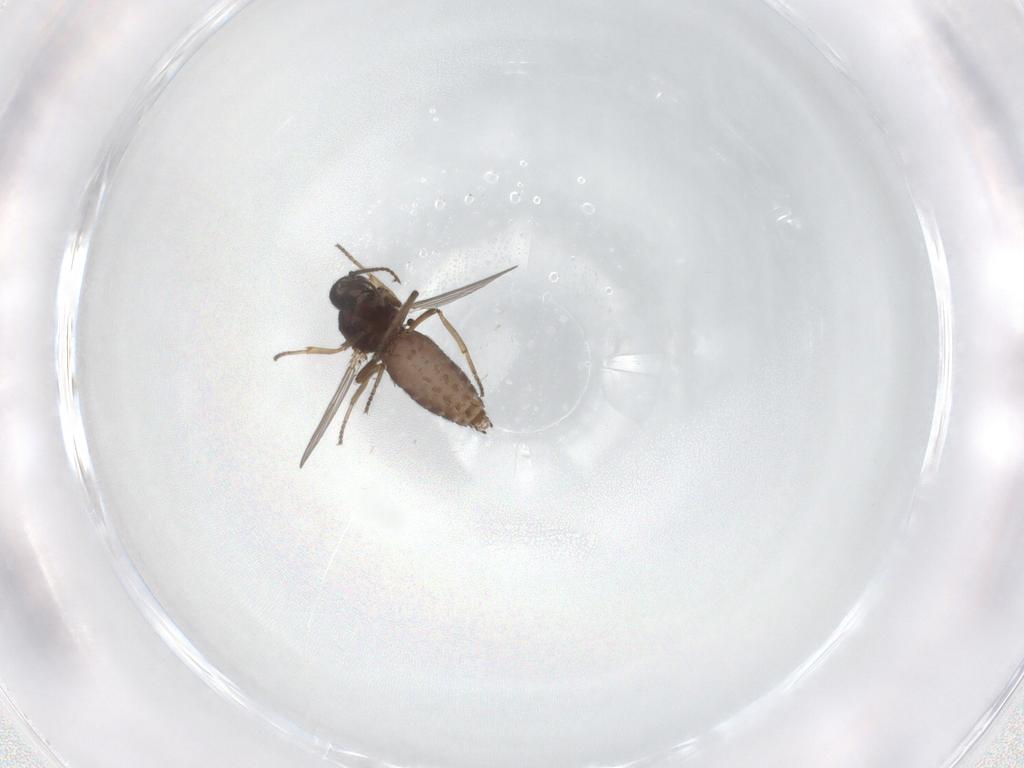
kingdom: Animalia
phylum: Arthropoda
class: Insecta
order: Diptera
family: Ceratopogonidae
